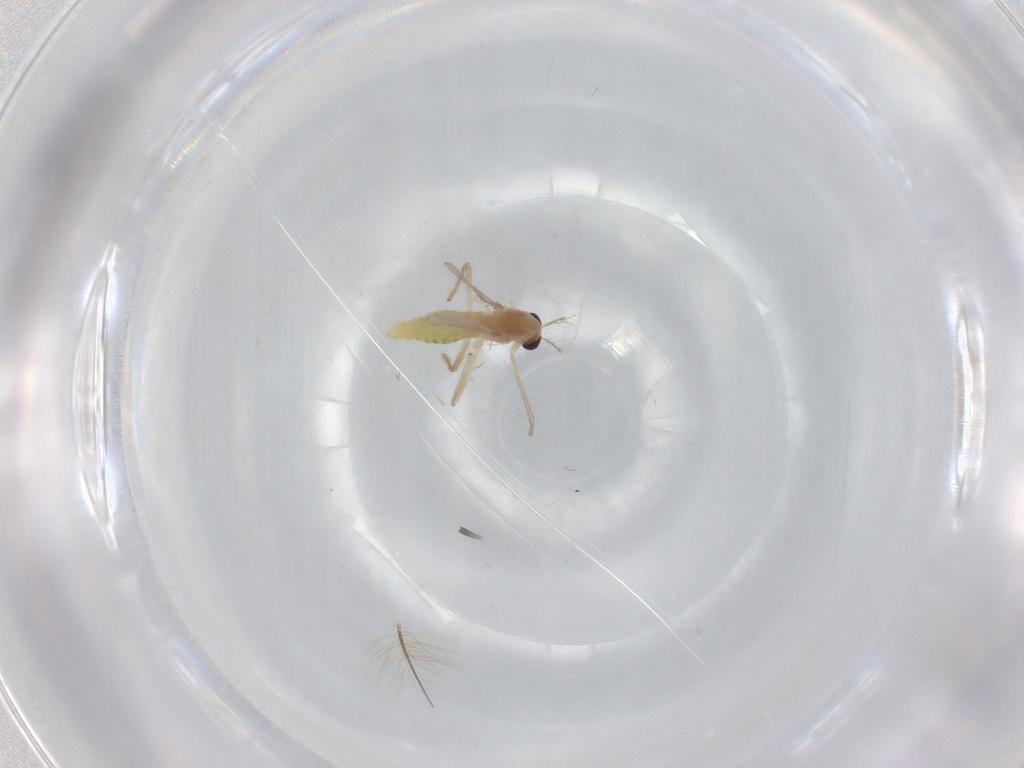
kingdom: Animalia
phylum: Arthropoda
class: Insecta
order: Diptera
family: Chironomidae
